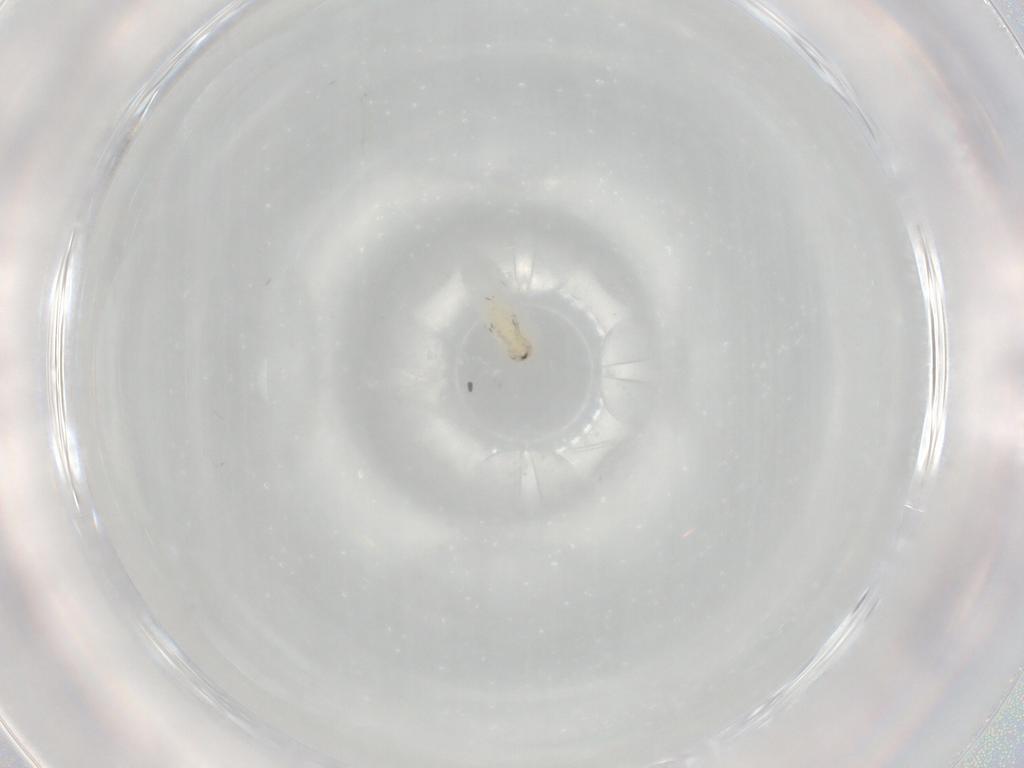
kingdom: Animalia
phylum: Arthropoda
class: Insecta
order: Coleoptera
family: Chrysomelidae
